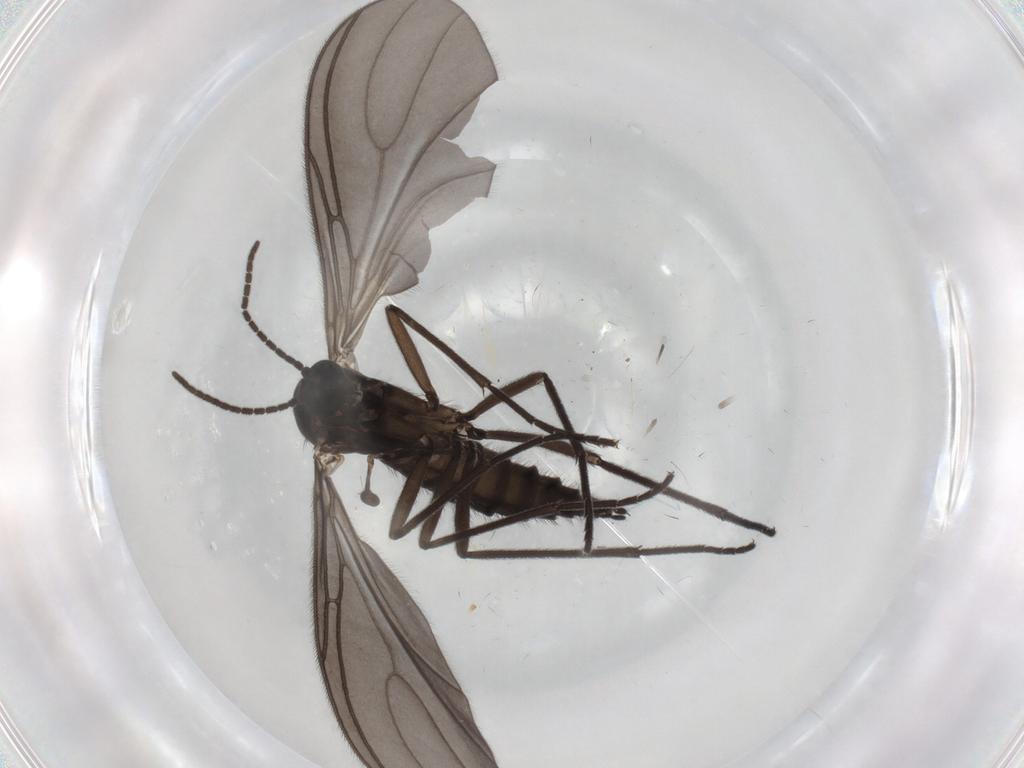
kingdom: Animalia
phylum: Arthropoda
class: Insecta
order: Diptera
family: Sciaridae
